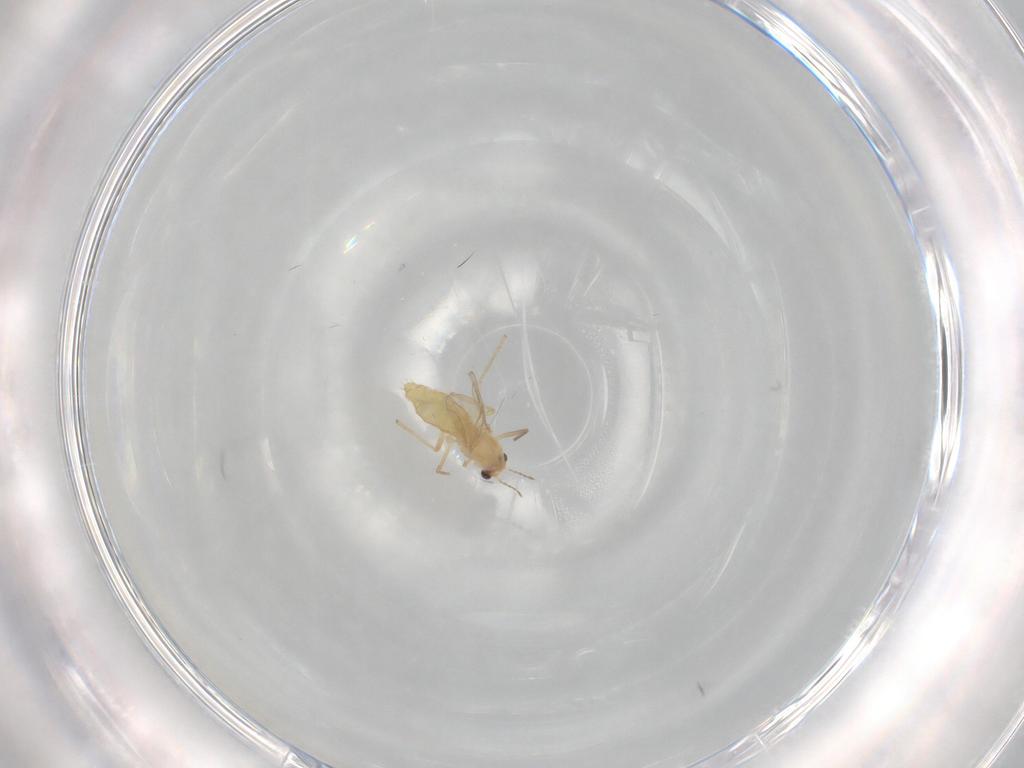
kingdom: Animalia
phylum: Arthropoda
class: Insecta
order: Diptera
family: Chironomidae
